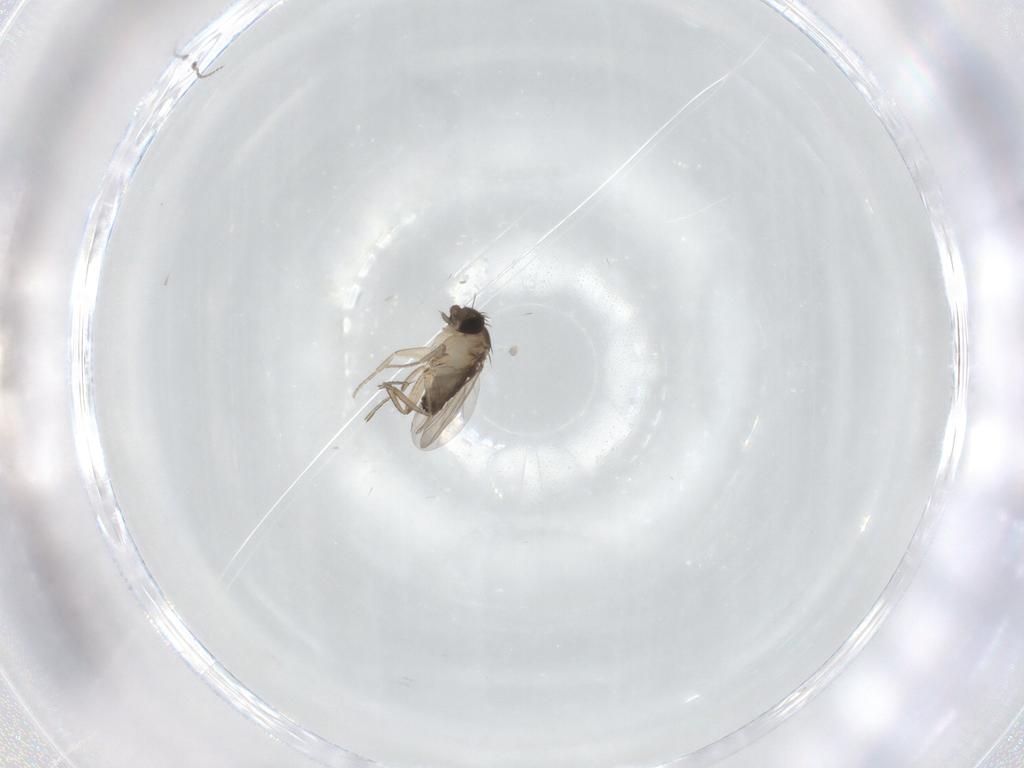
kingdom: Animalia
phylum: Arthropoda
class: Insecta
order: Diptera
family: Phoridae
